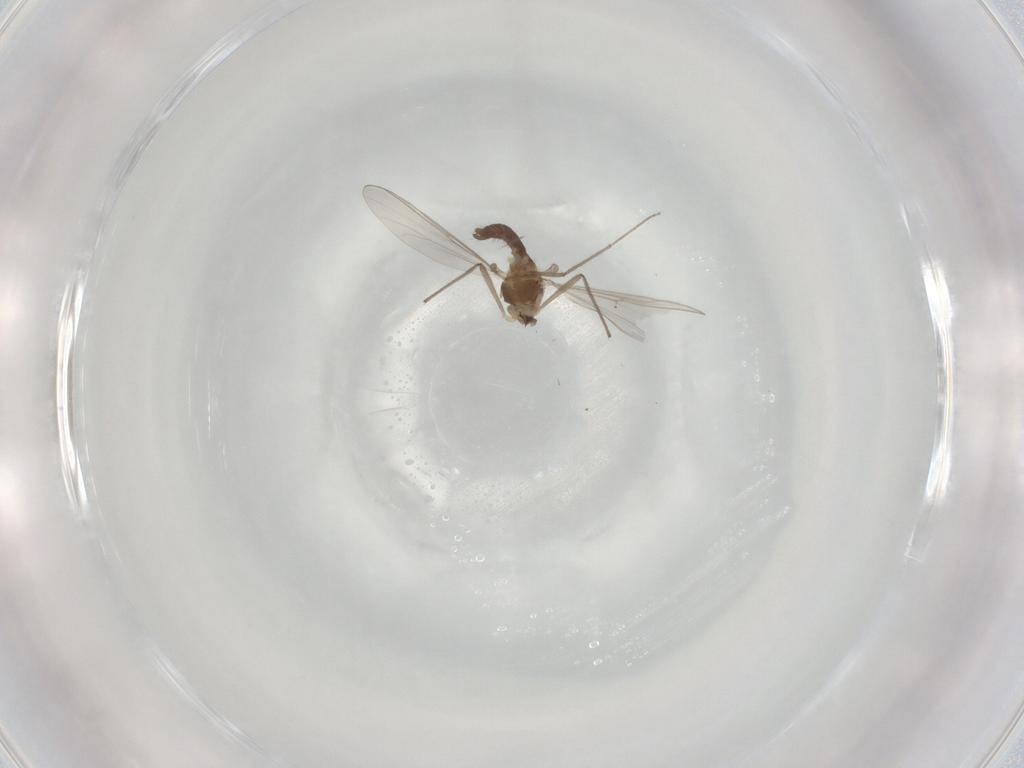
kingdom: Animalia
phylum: Arthropoda
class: Insecta
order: Diptera
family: Chironomidae
